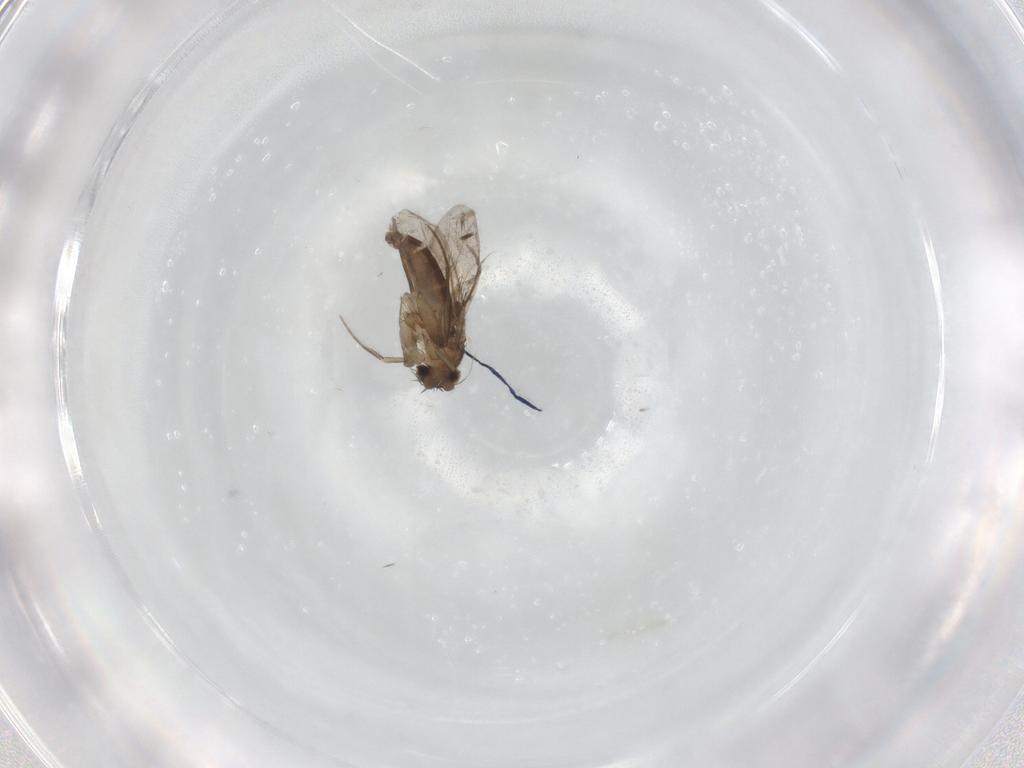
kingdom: Animalia
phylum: Arthropoda
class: Insecta
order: Diptera
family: Phoridae
